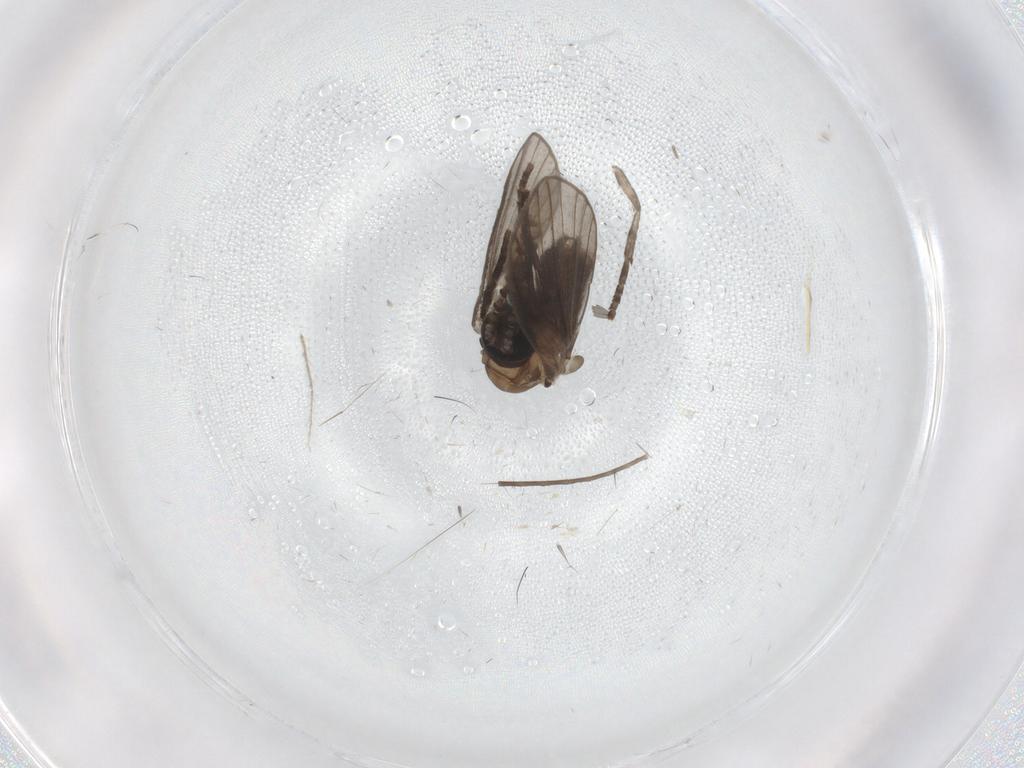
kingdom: Animalia
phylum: Arthropoda
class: Insecta
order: Diptera
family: Psychodidae
